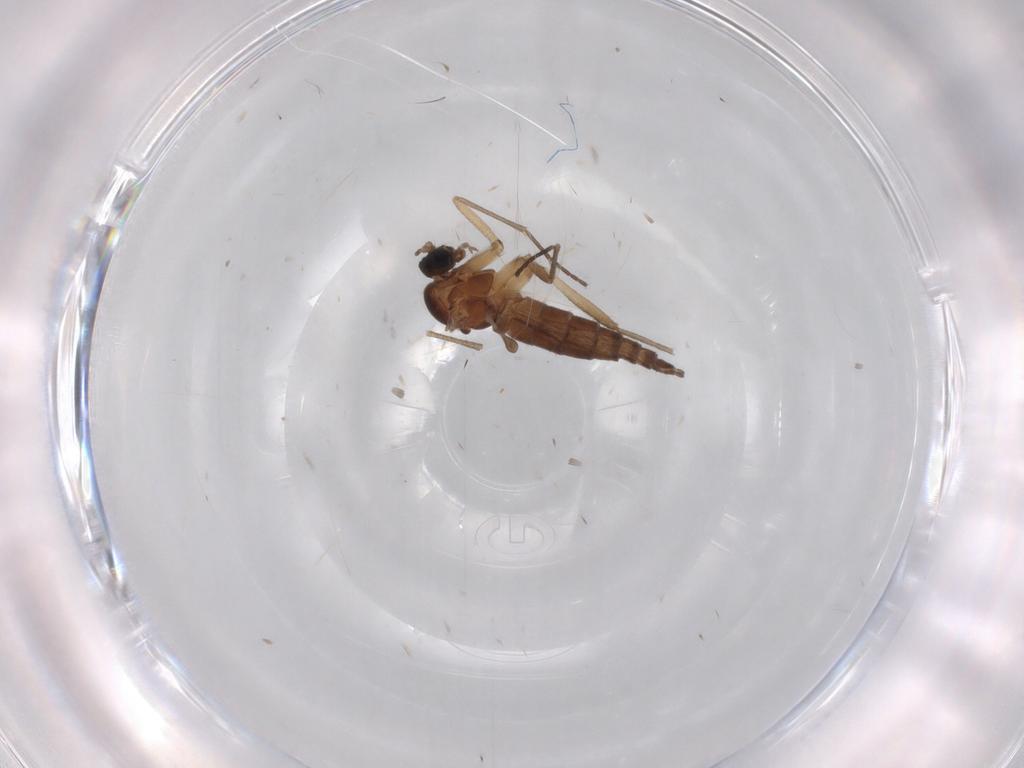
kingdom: Animalia
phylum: Arthropoda
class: Insecta
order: Diptera
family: Sciaridae
